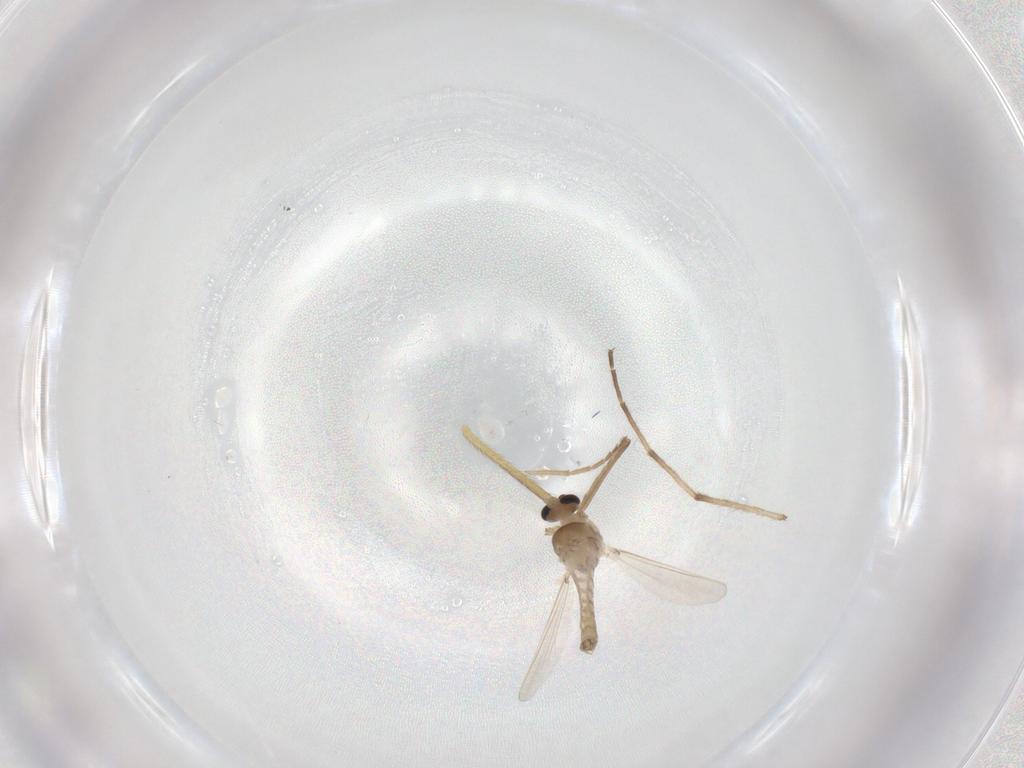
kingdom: Animalia
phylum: Arthropoda
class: Insecta
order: Diptera
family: Chironomidae
